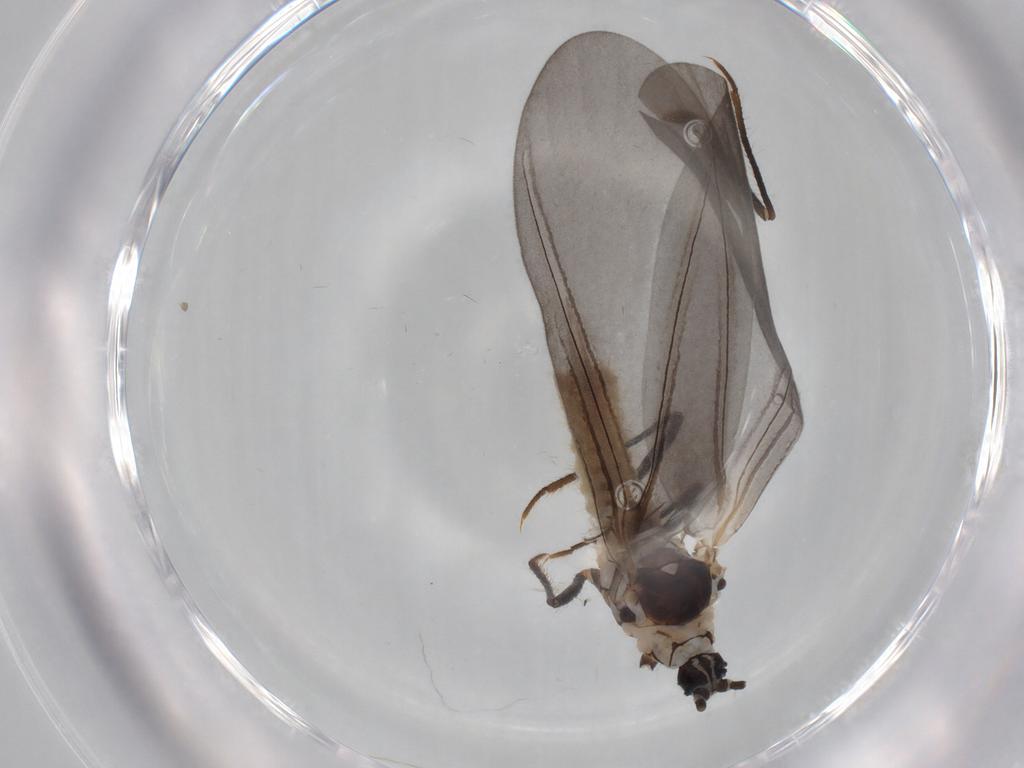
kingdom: Animalia
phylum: Arthropoda
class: Insecta
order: Hemiptera
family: Putoidae
